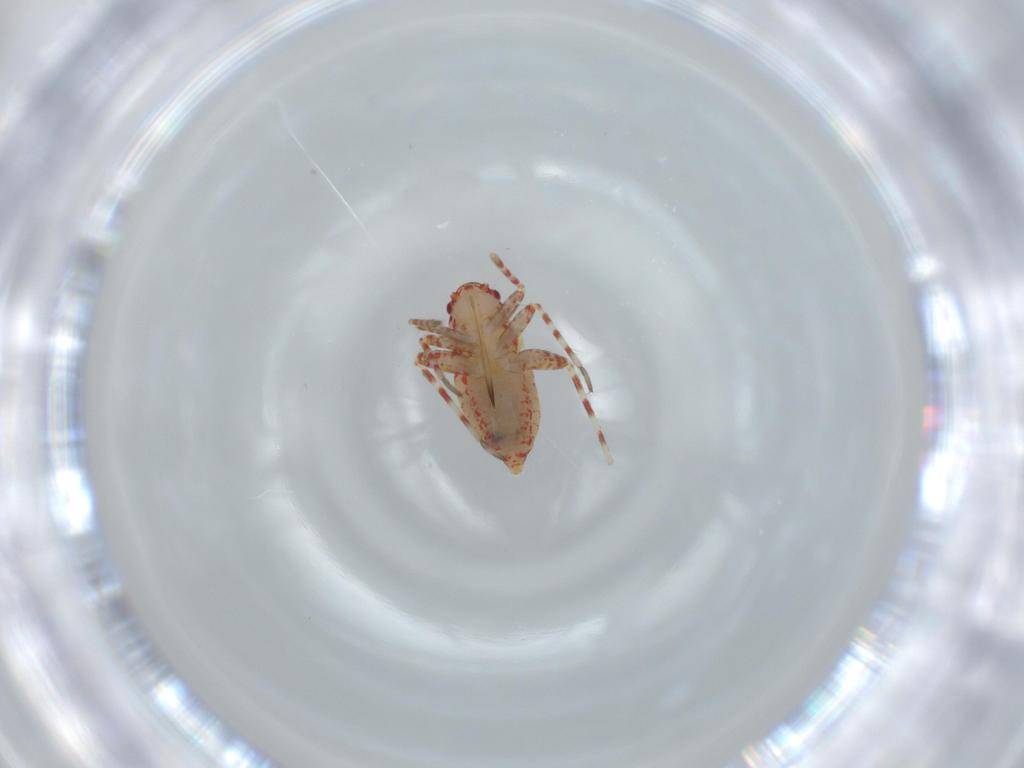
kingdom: Animalia
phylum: Arthropoda
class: Insecta
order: Hemiptera
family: Miridae
